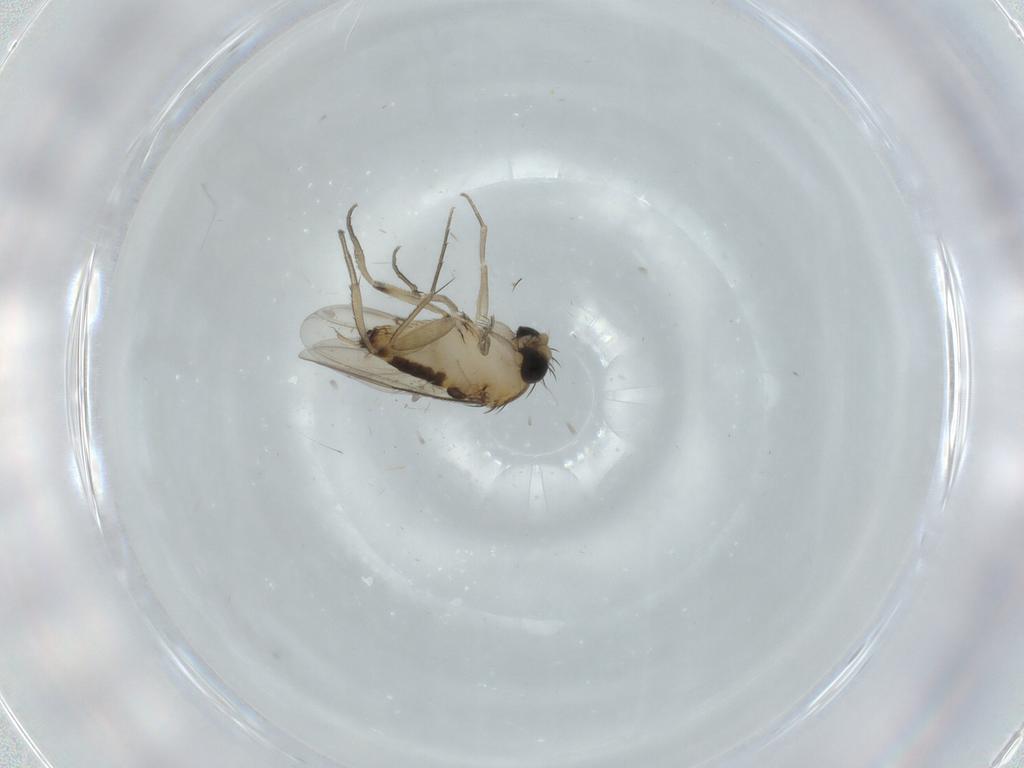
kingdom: Animalia
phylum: Arthropoda
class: Insecta
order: Diptera
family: Phoridae
